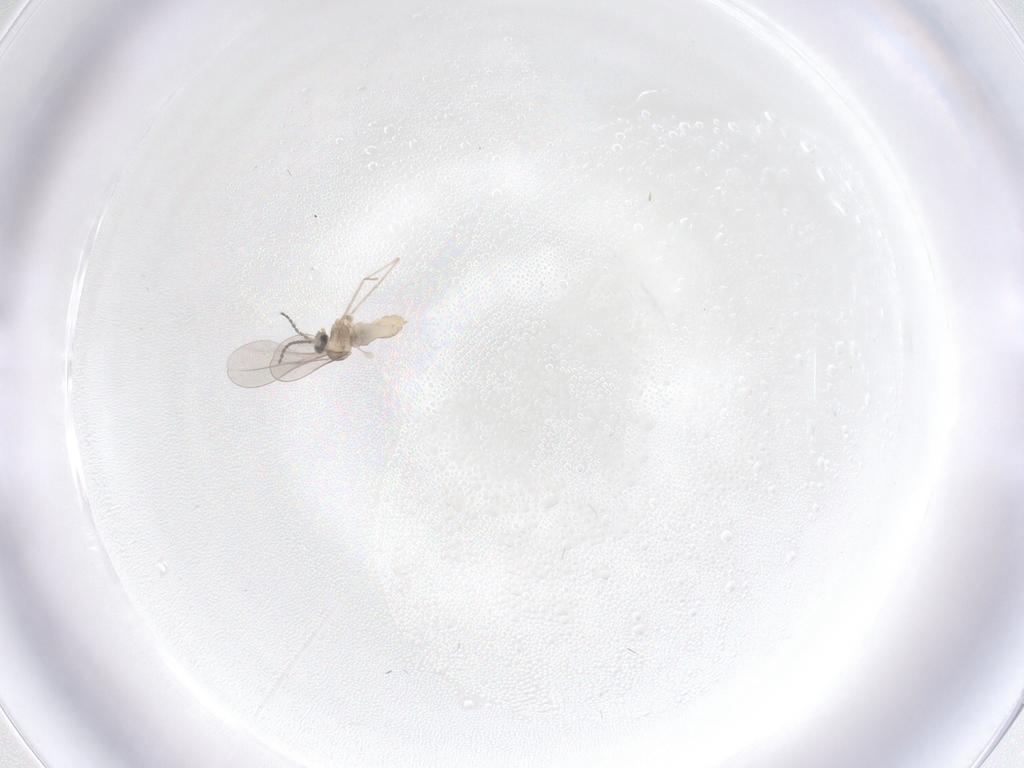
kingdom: Animalia
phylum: Arthropoda
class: Insecta
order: Diptera
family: Cecidomyiidae
